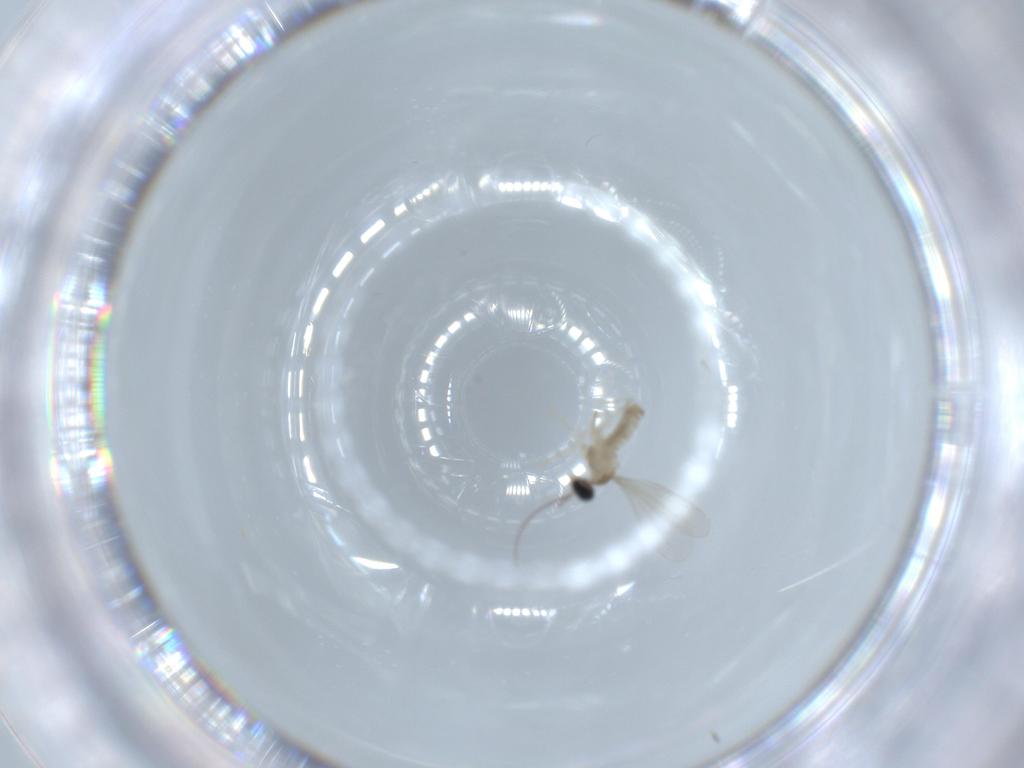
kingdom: Animalia
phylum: Arthropoda
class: Insecta
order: Diptera
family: Cecidomyiidae
